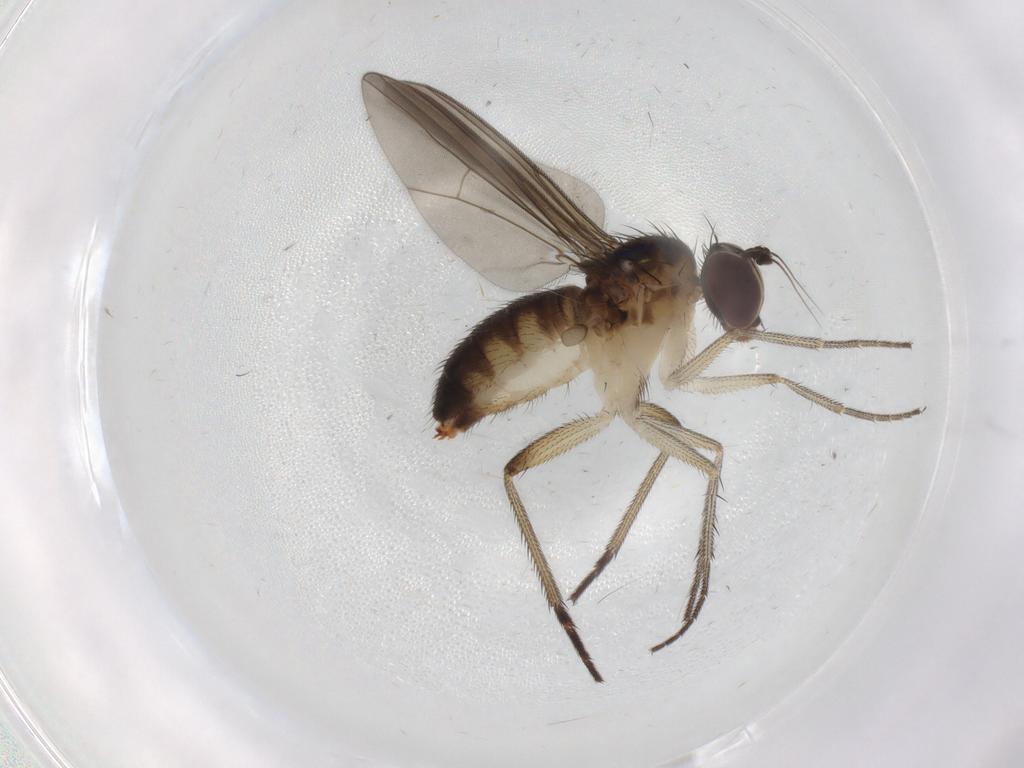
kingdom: Animalia
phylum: Arthropoda
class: Insecta
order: Diptera
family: Dolichopodidae
